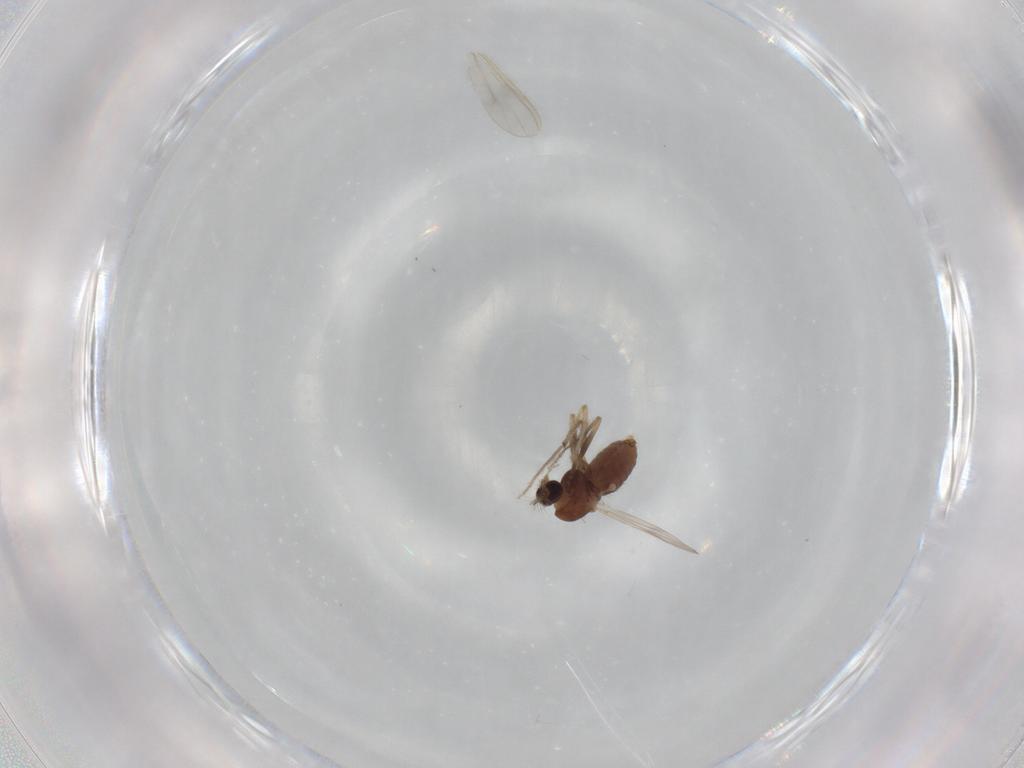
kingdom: Animalia
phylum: Arthropoda
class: Insecta
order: Diptera
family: Chironomidae
